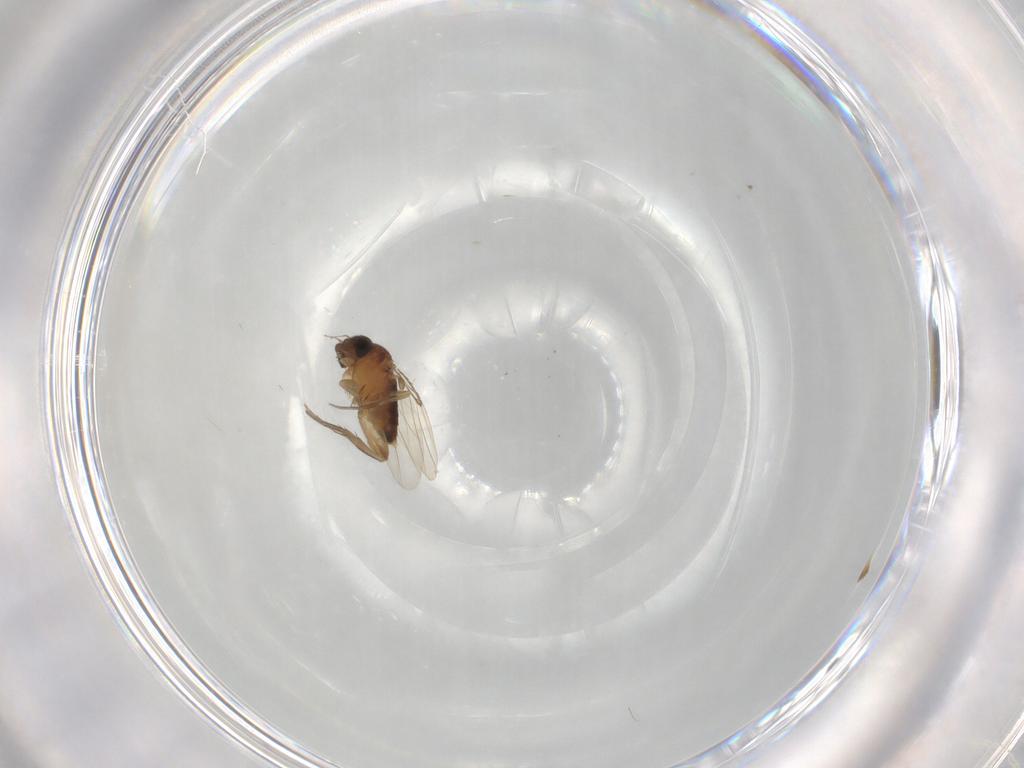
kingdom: Animalia
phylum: Arthropoda
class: Insecta
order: Diptera
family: Phoridae
